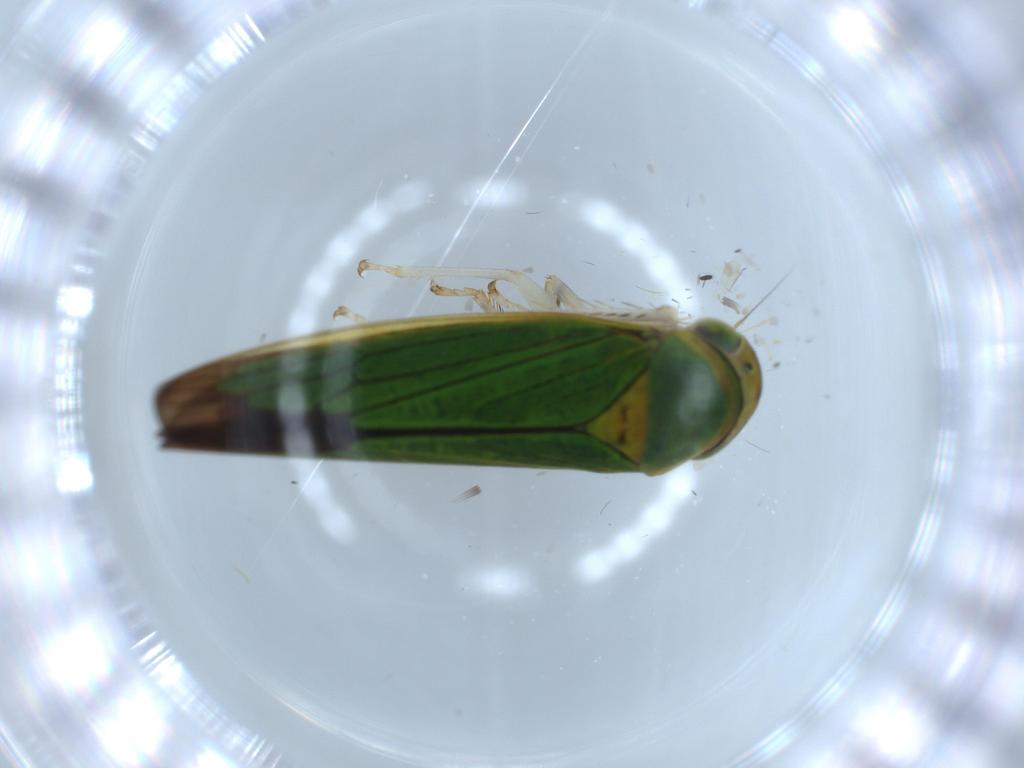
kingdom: Animalia
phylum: Arthropoda
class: Insecta
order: Hemiptera
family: Cicadellidae
